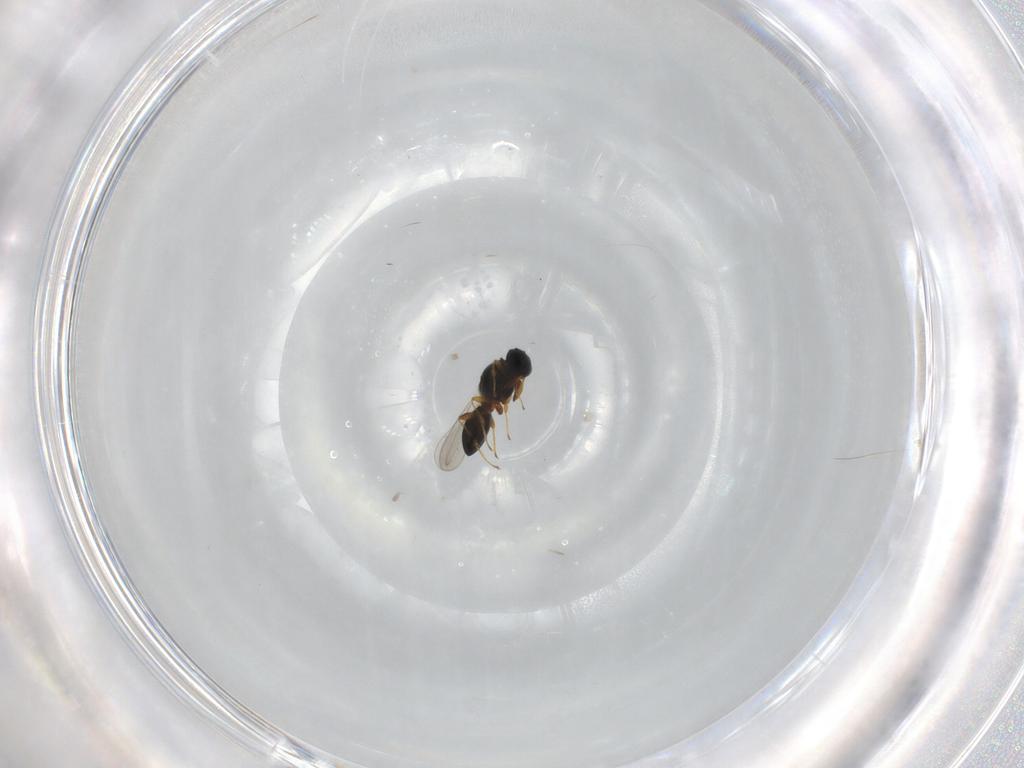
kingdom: Animalia
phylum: Arthropoda
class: Insecta
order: Hymenoptera
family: Platygastridae
